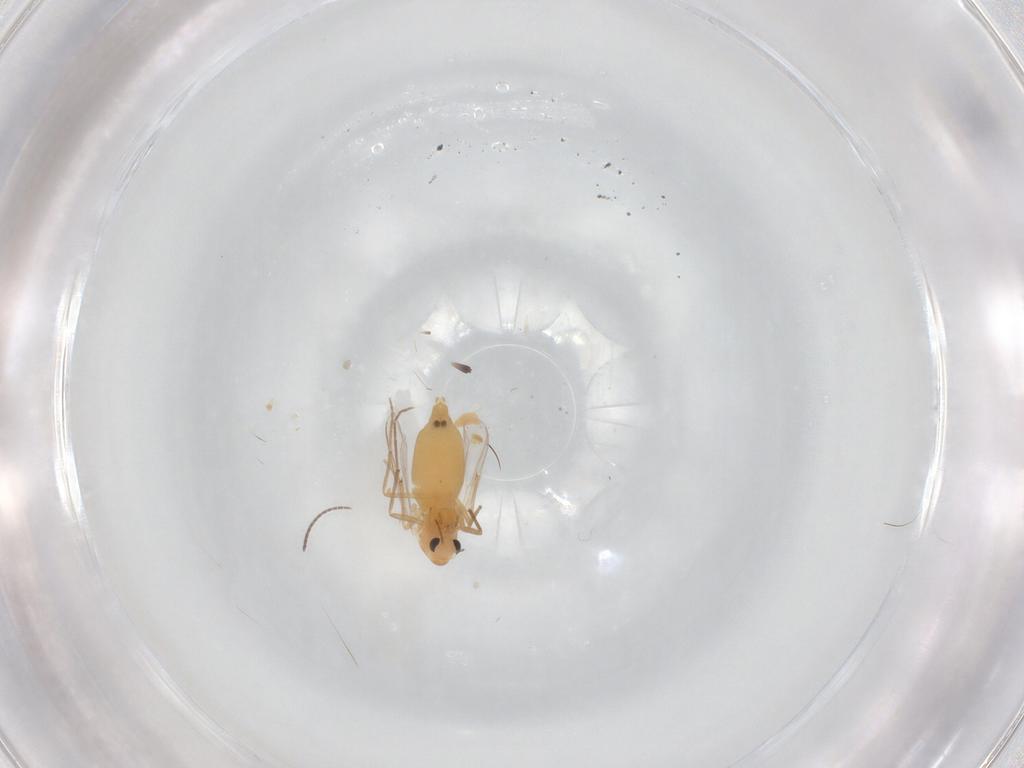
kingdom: Animalia
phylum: Arthropoda
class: Insecta
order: Diptera
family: Chironomidae
